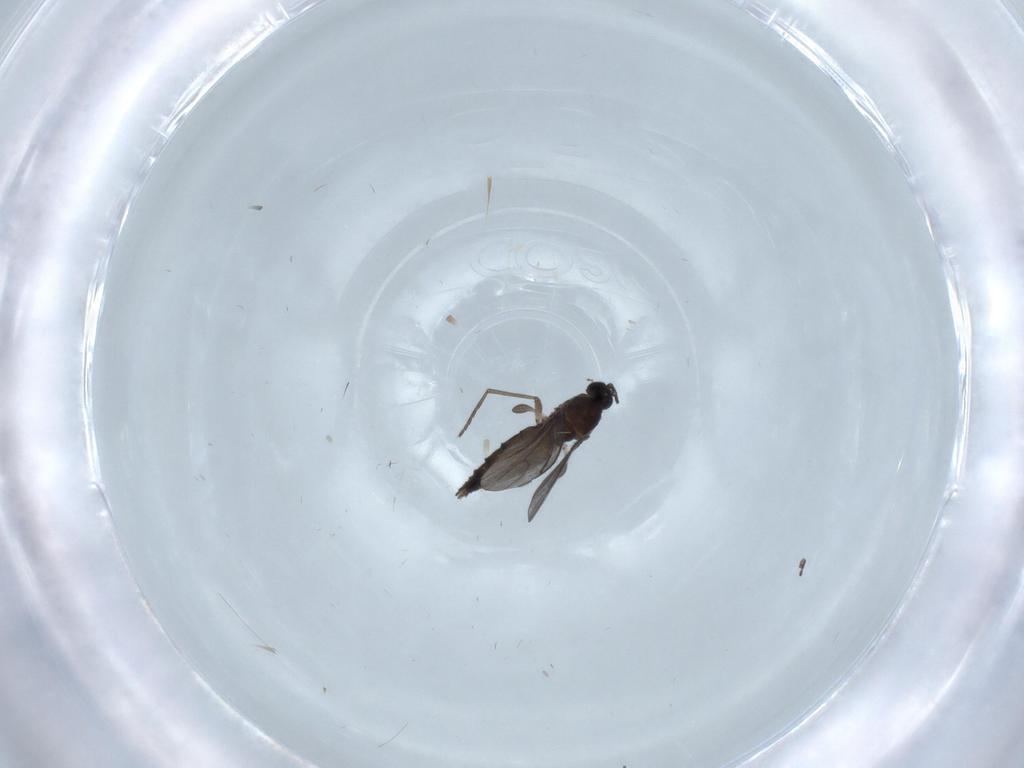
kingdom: Animalia
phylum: Arthropoda
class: Insecta
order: Diptera
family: Sciaridae
